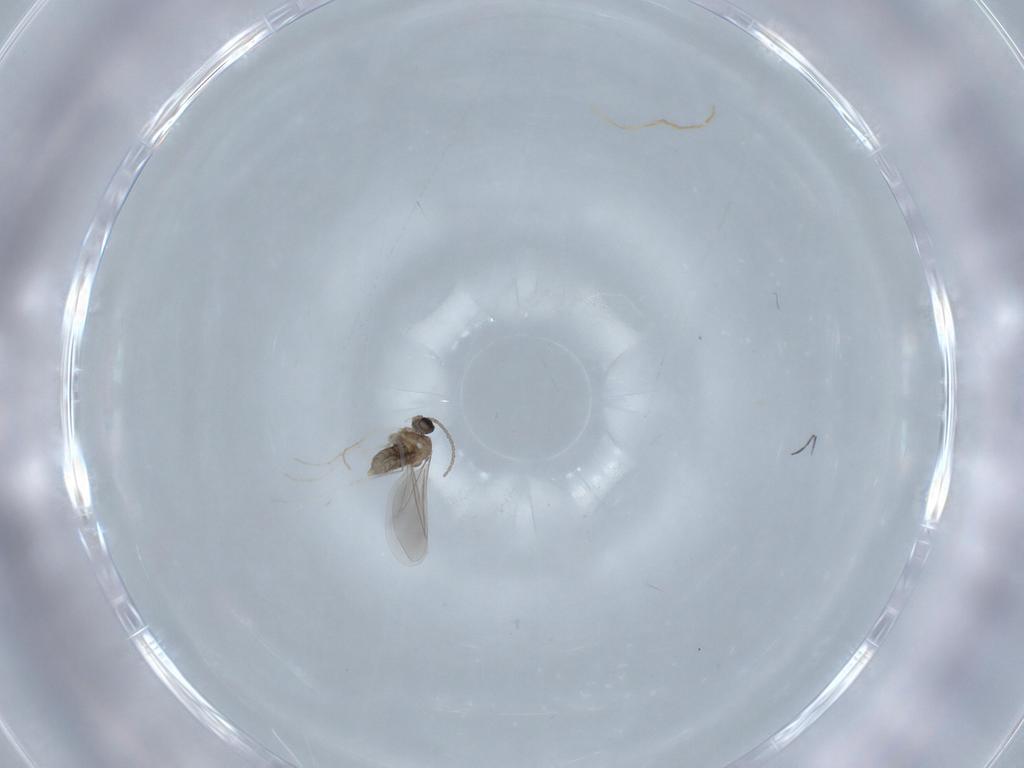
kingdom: Animalia
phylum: Arthropoda
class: Insecta
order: Diptera
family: Cecidomyiidae
